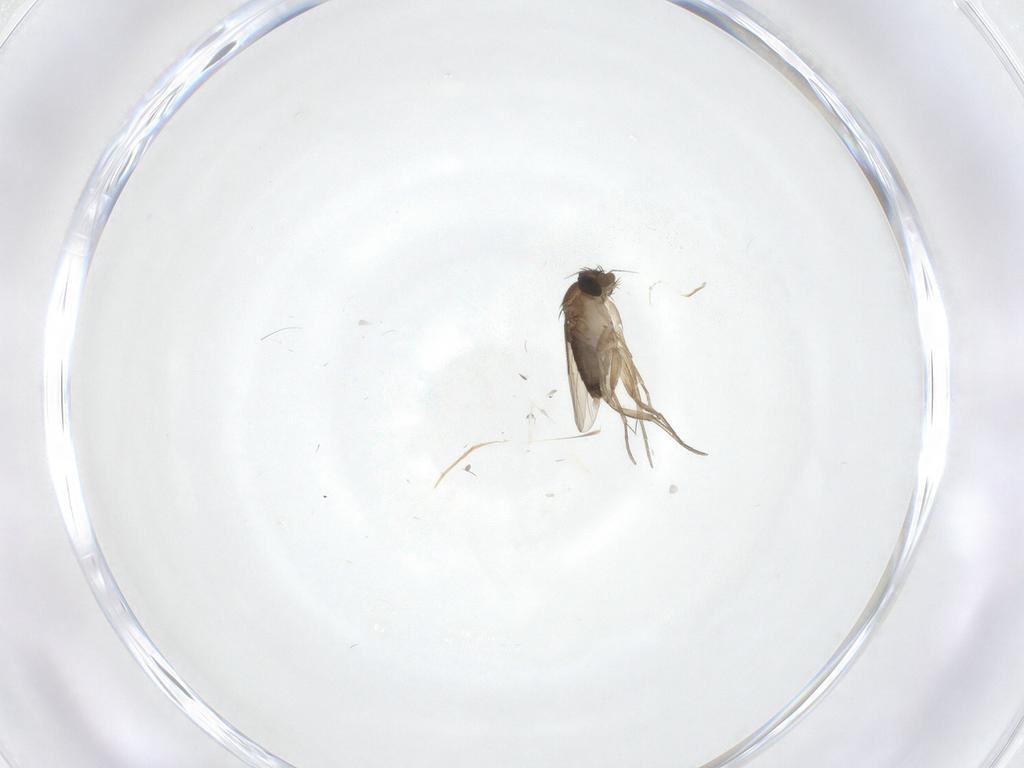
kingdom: Animalia
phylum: Arthropoda
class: Insecta
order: Diptera
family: Phoridae
